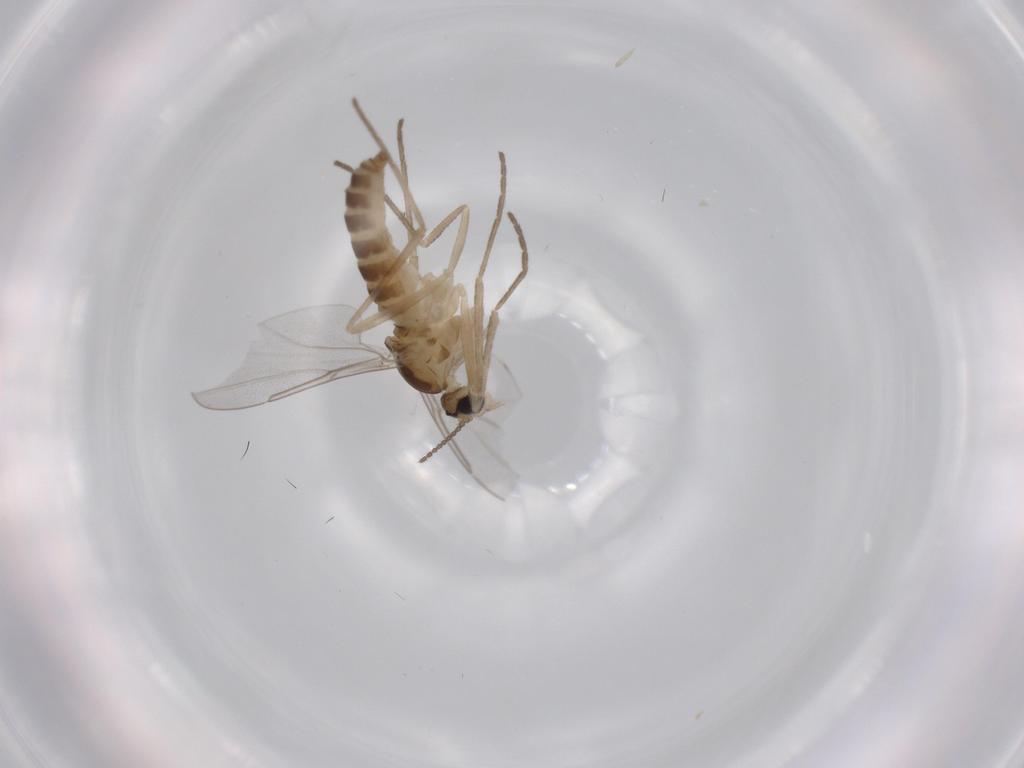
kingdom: Animalia
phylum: Arthropoda
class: Insecta
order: Diptera
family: Cecidomyiidae
